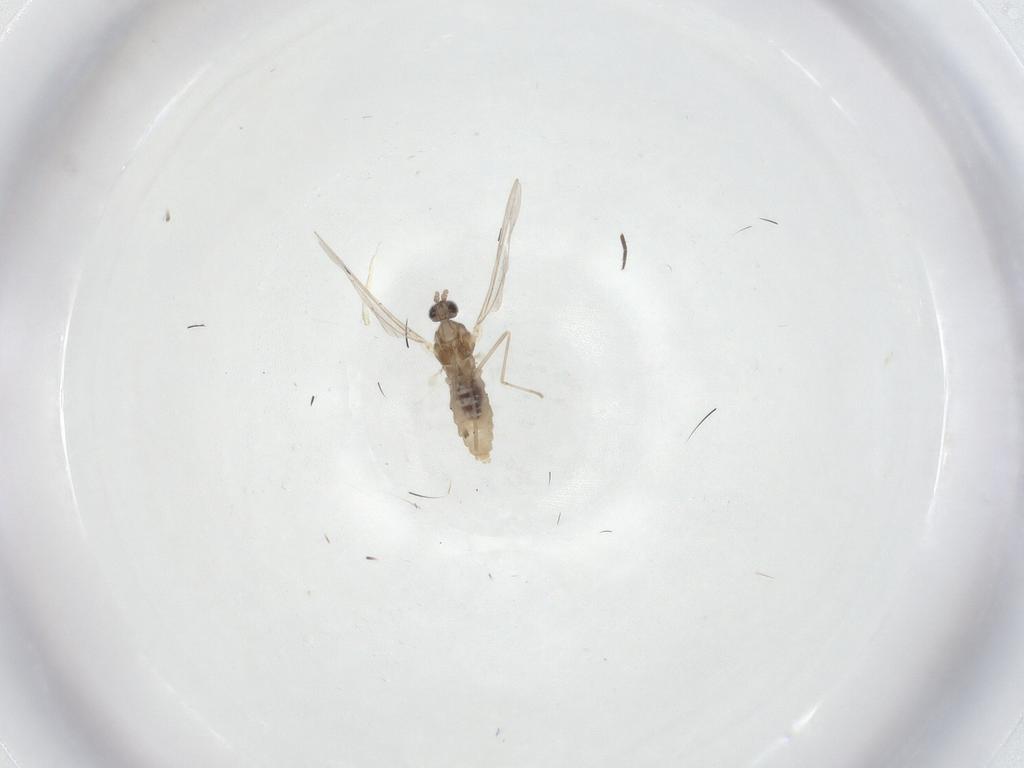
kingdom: Animalia
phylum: Arthropoda
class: Insecta
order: Diptera
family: Cecidomyiidae
